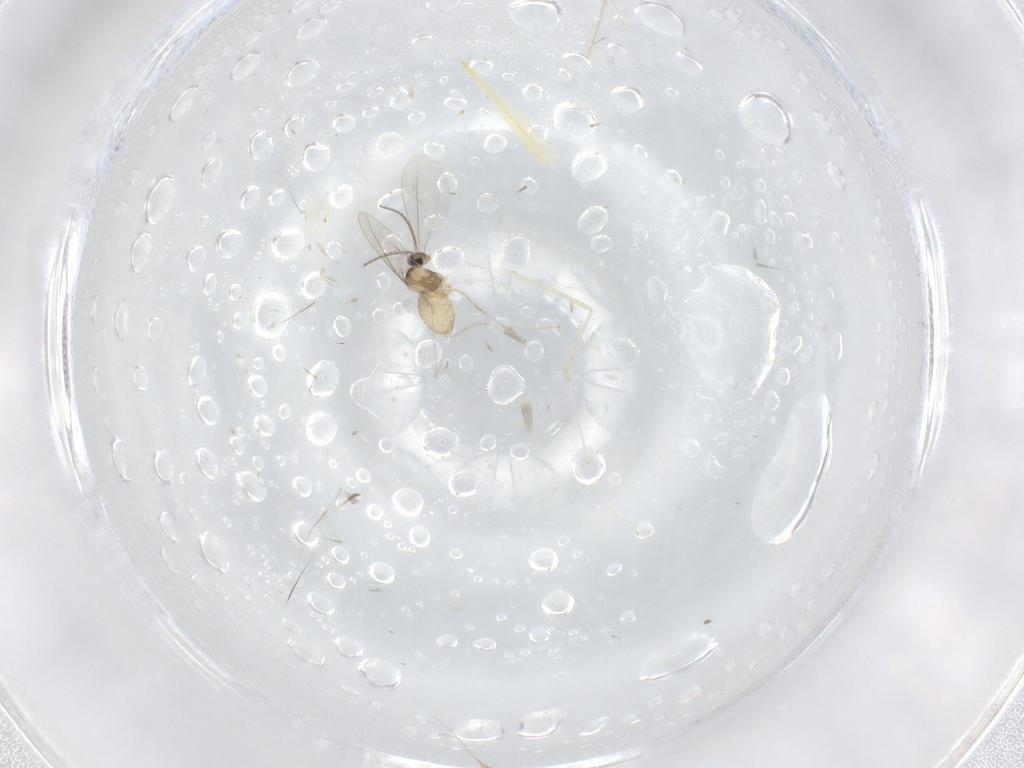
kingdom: Animalia
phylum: Arthropoda
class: Insecta
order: Diptera
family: Cecidomyiidae
